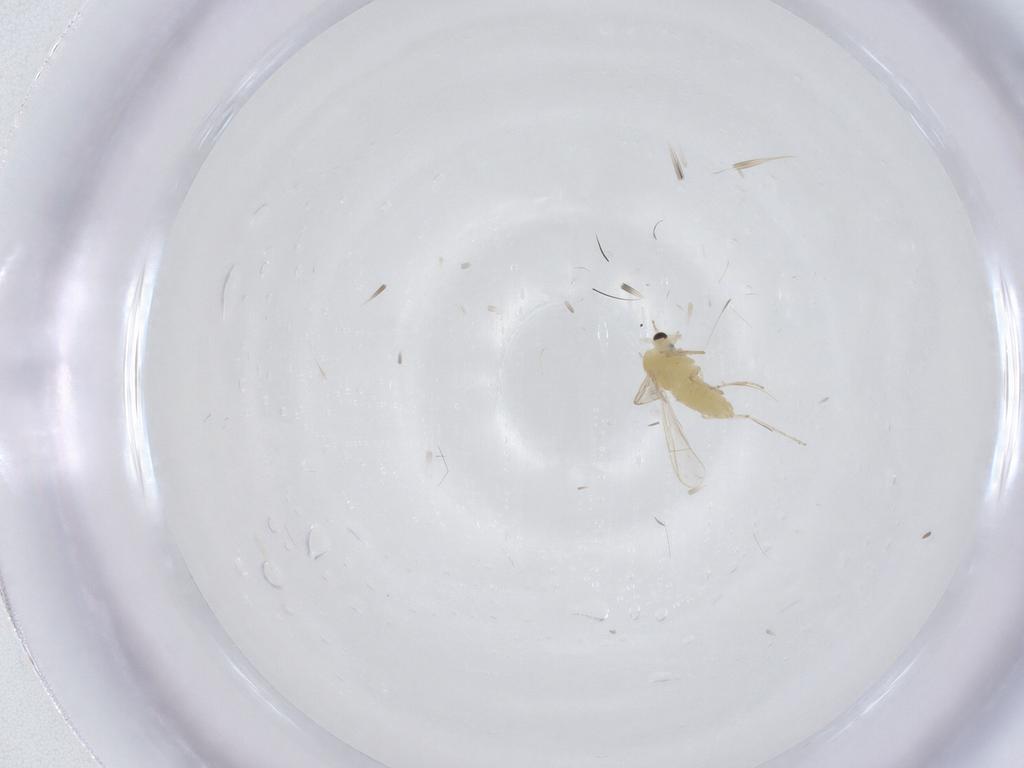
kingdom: Animalia
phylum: Arthropoda
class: Insecta
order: Diptera
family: Chironomidae
